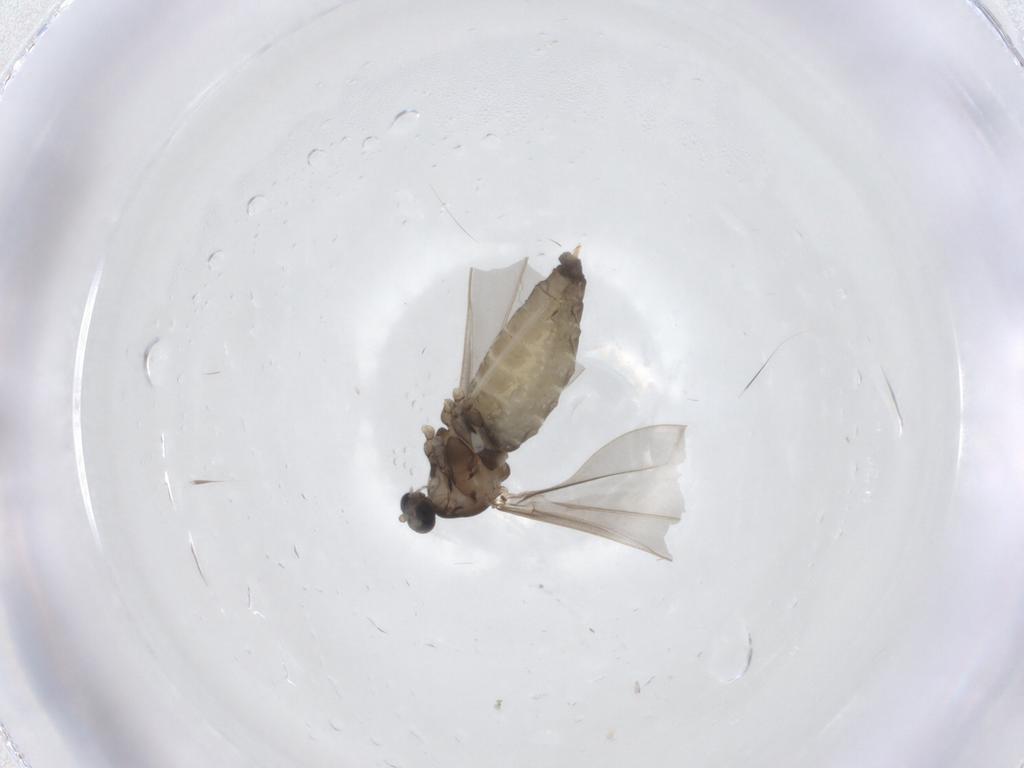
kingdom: Animalia
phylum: Arthropoda
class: Insecta
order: Diptera
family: Cecidomyiidae
